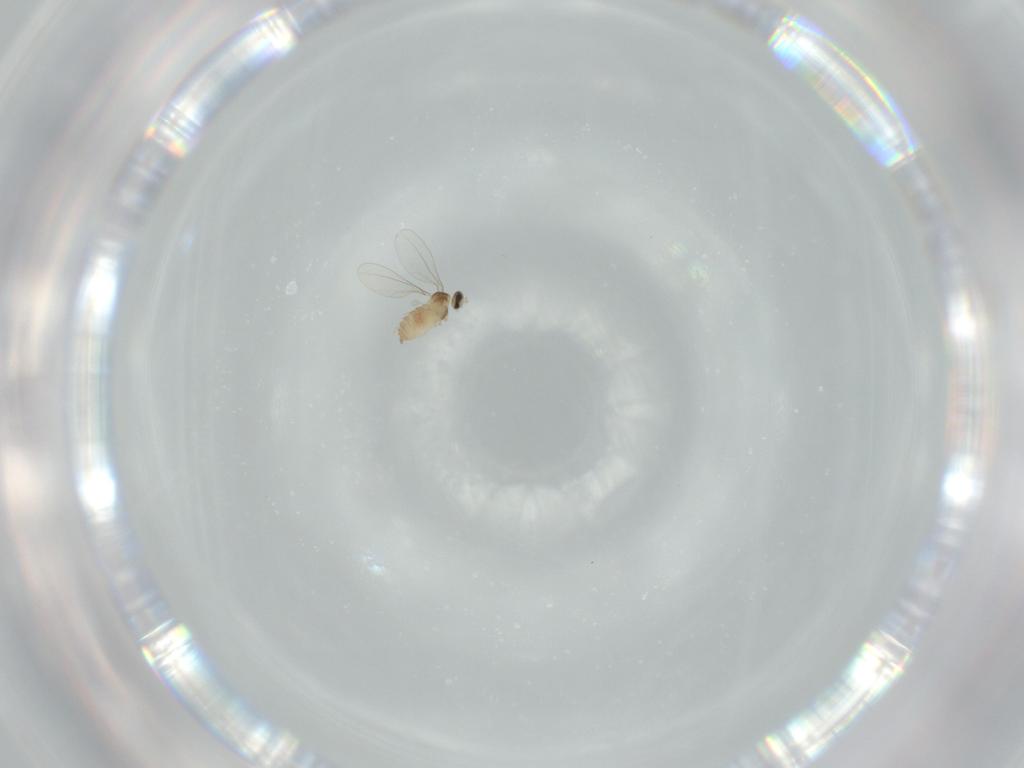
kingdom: Animalia
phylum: Arthropoda
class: Insecta
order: Diptera
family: Cecidomyiidae
